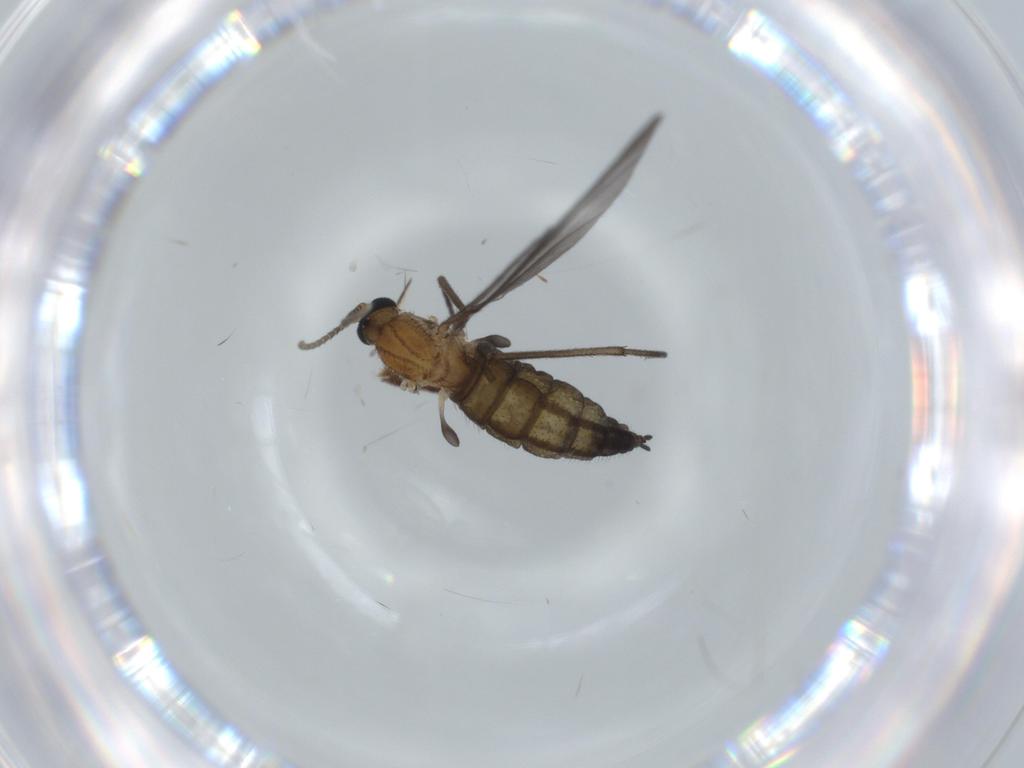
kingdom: Animalia
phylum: Arthropoda
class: Insecta
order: Diptera
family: Sciaridae
